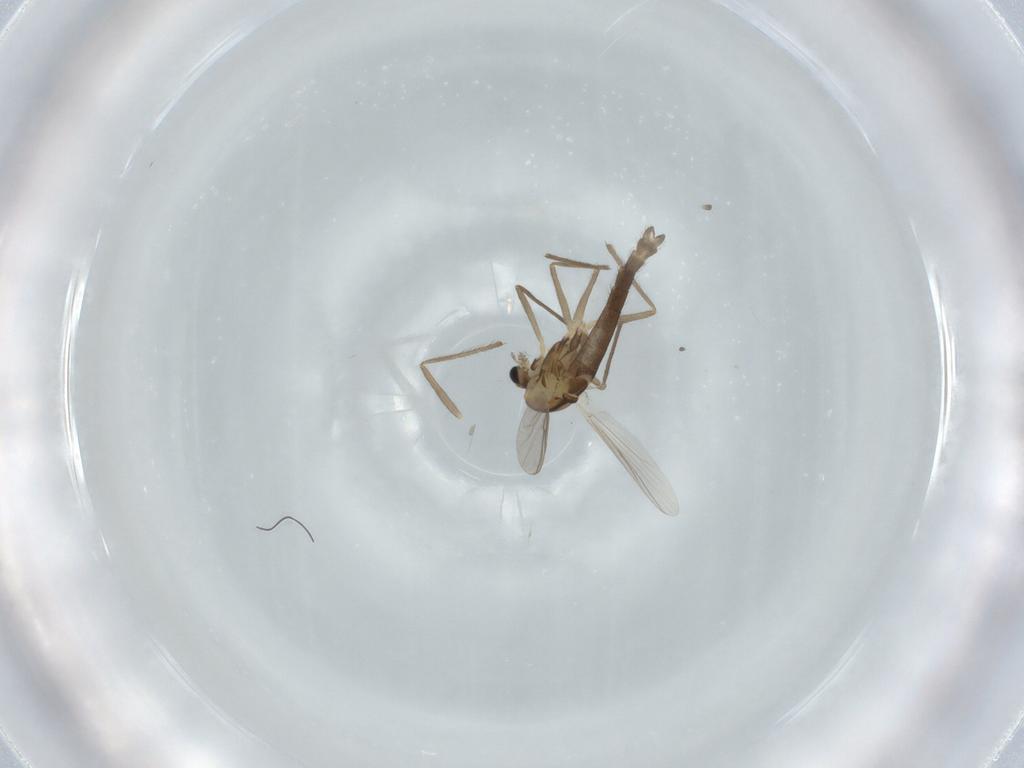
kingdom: Animalia
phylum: Arthropoda
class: Insecta
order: Diptera
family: Chironomidae
